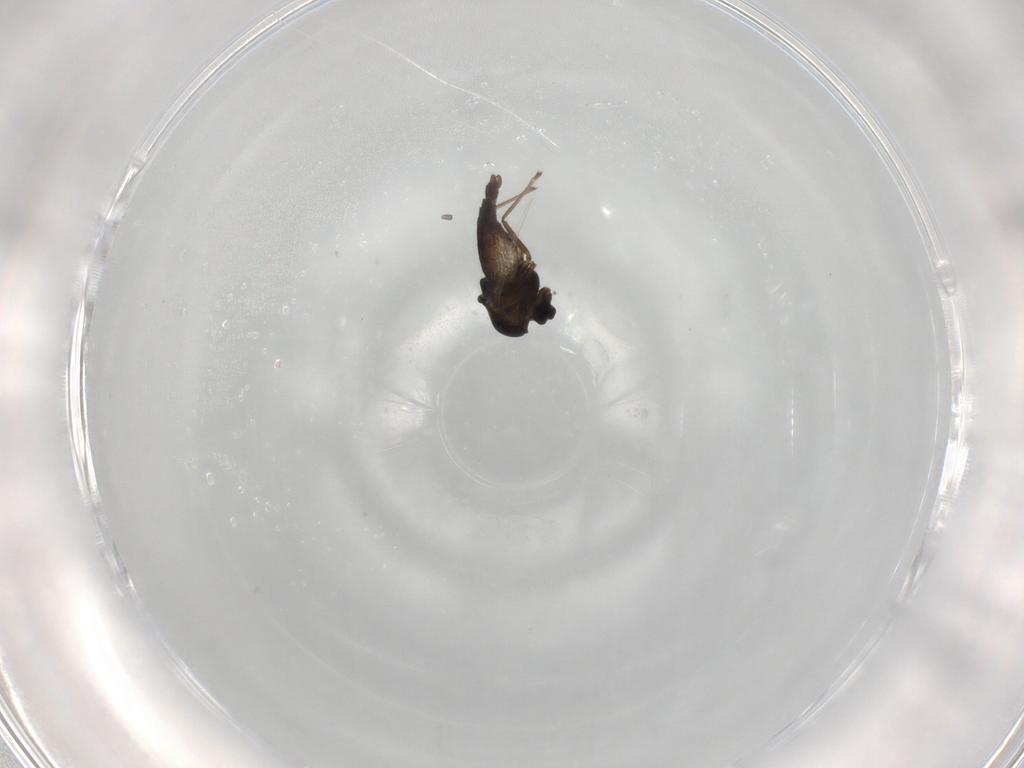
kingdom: Animalia
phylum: Arthropoda
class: Insecta
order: Diptera
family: Chironomidae
